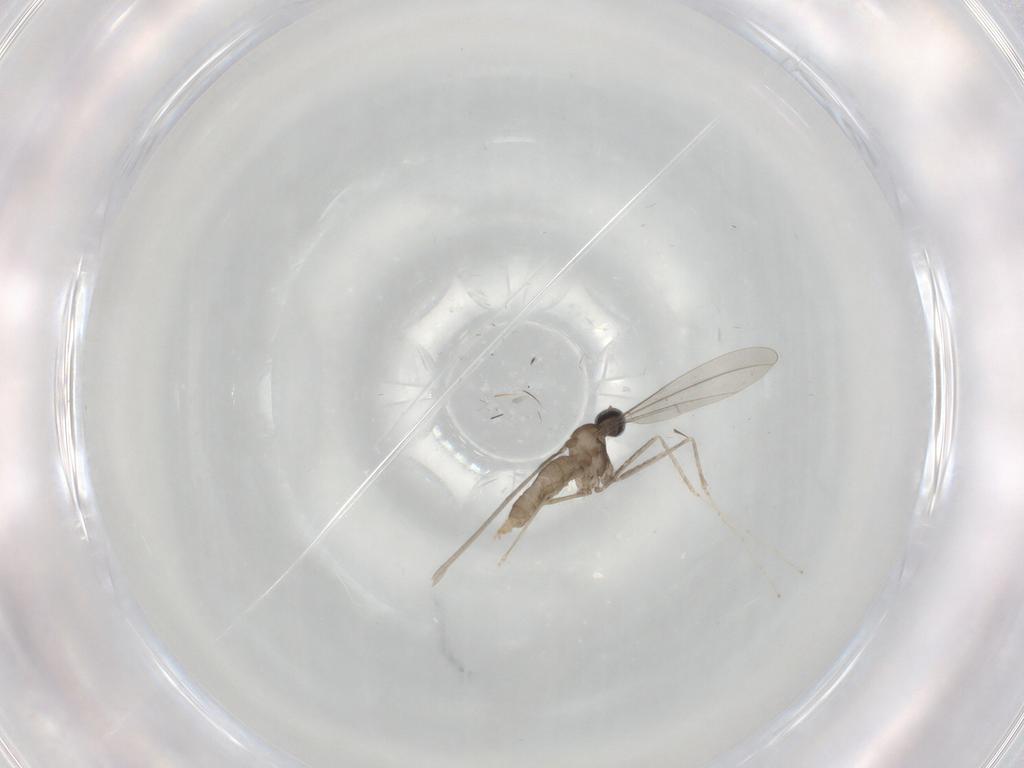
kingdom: Animalia
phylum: Arthropoda
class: Insecta
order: Diptera
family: Cecidomyiidae
